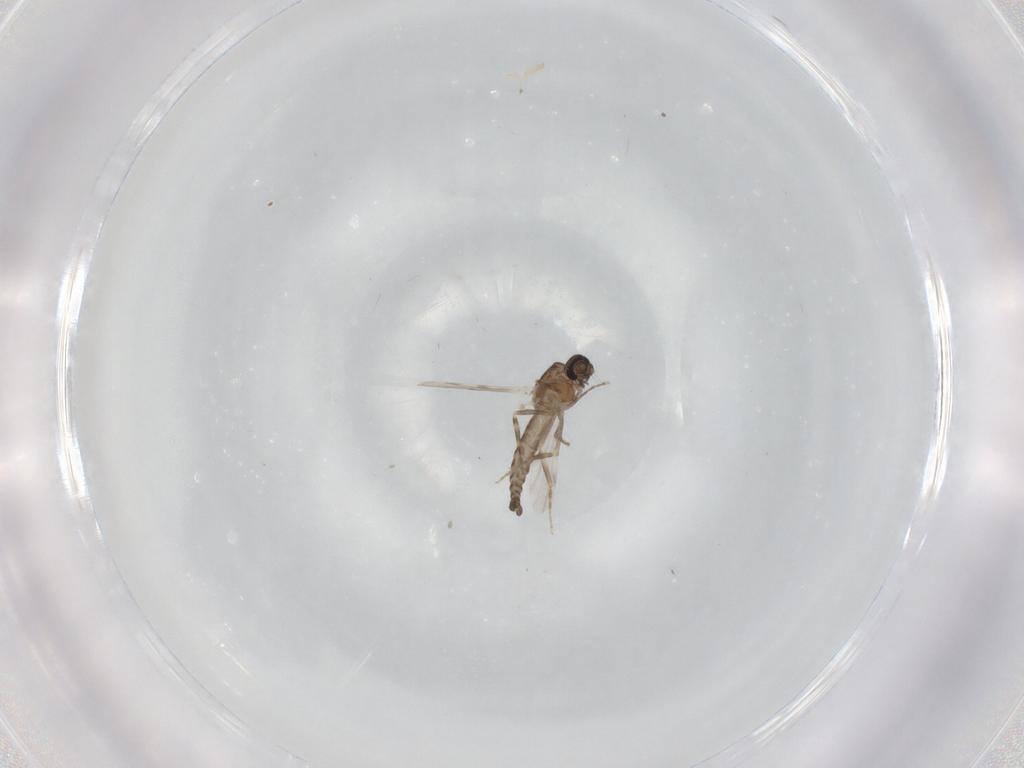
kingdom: Animalia
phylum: Arthropoda
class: Insecta
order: Diptera
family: Ceratopogonidae
